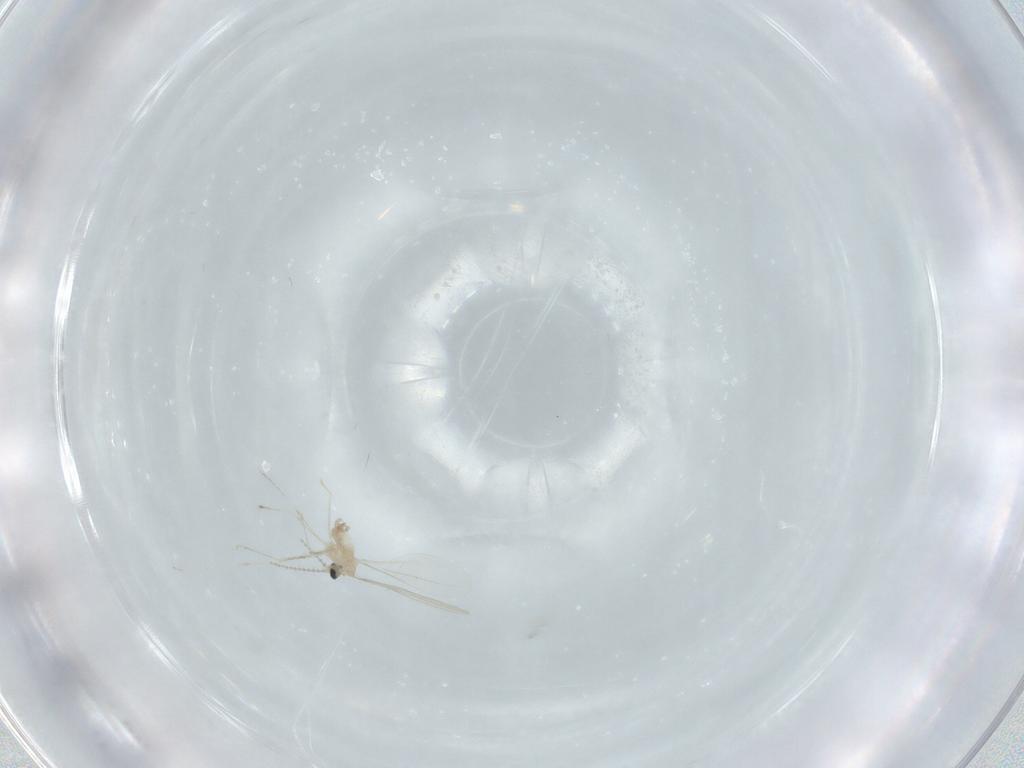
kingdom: Animalia
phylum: Arthropoda
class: Insecta
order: Diptera
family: Cecidomyiidae
